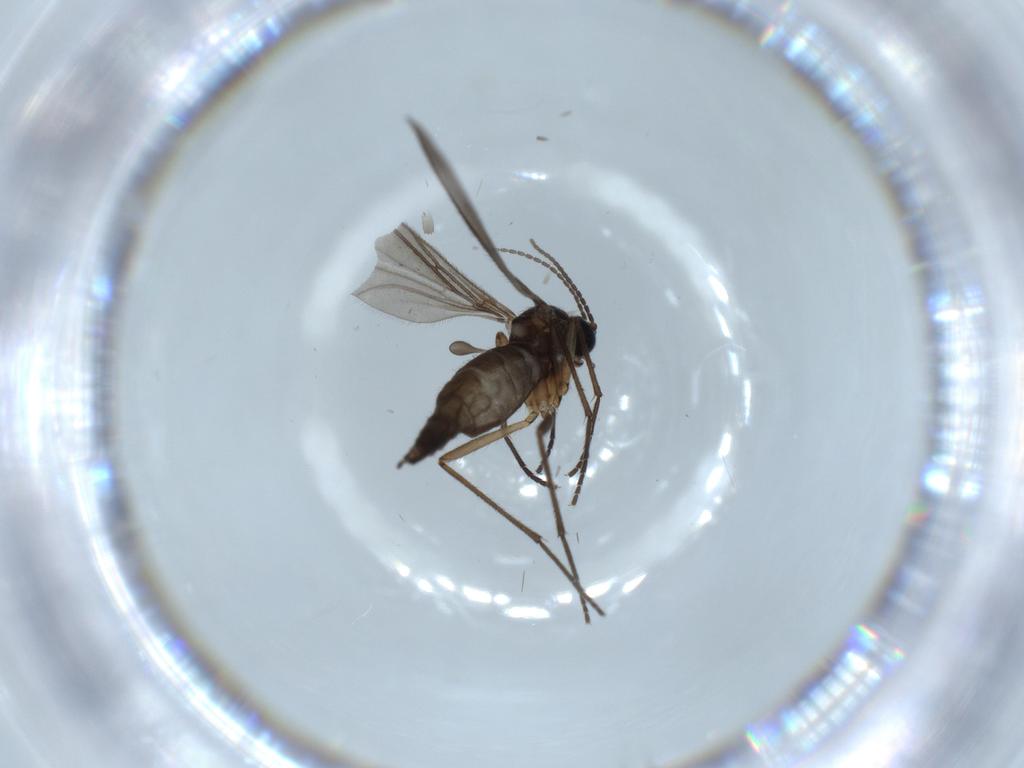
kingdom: Animalia
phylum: Arthropoda
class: Insecta
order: Diptera
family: Sciaridae
